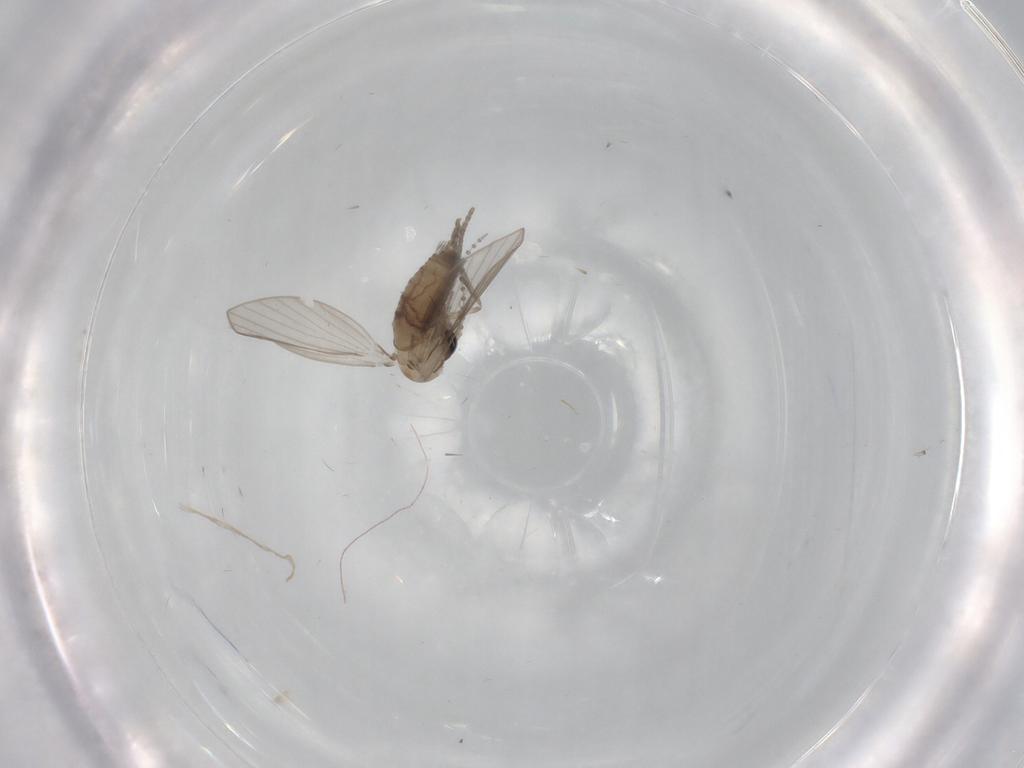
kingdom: Animalia
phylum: Arthropoda
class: Insecta
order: Diptera
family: Psychodidae
